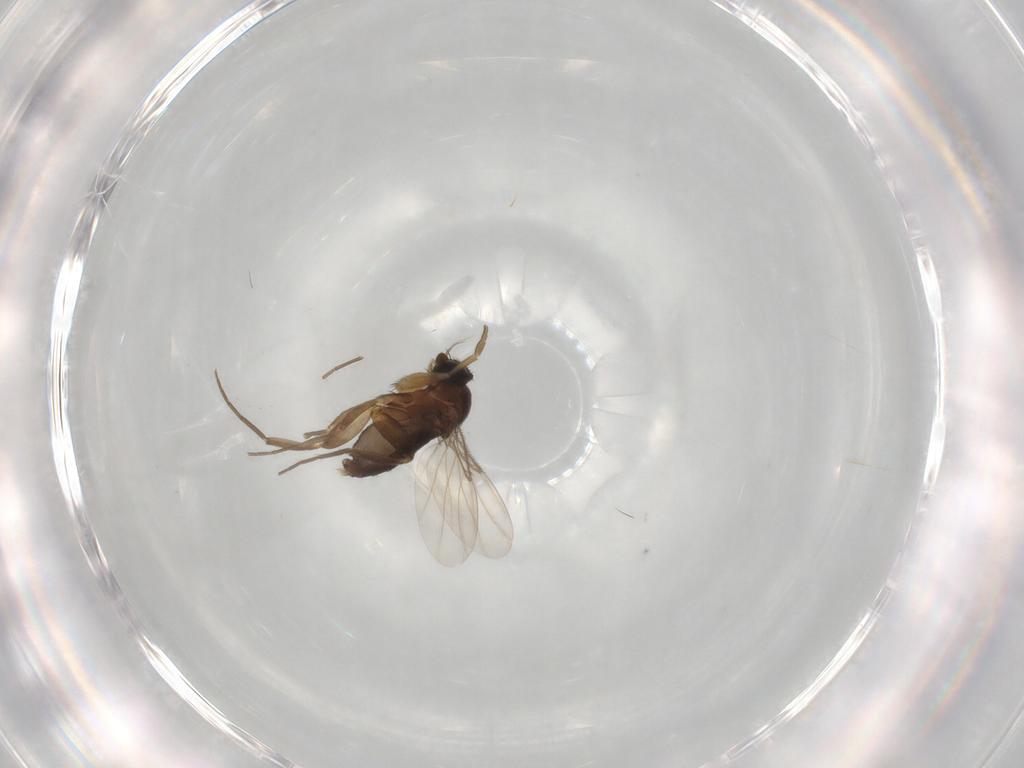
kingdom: Animalia
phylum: Arthropoda
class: Insecta
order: Diptera
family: Phoridae
